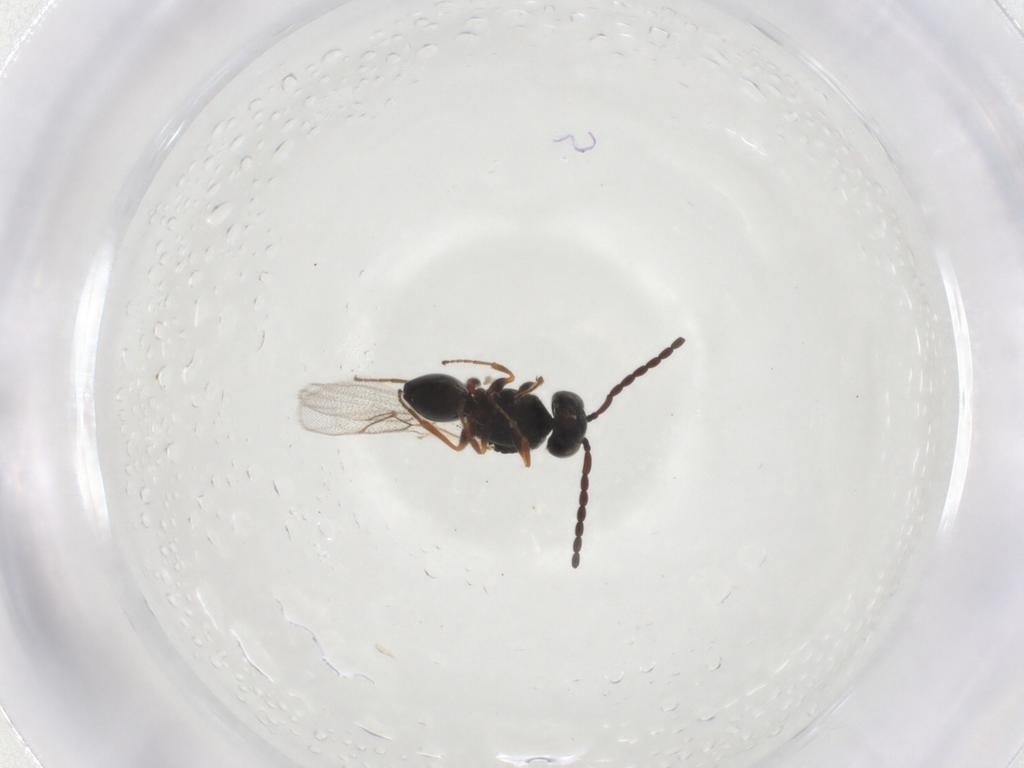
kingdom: Animalia
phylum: Arthropoda
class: Insecta
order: Hymenoptera
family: Figitidae
